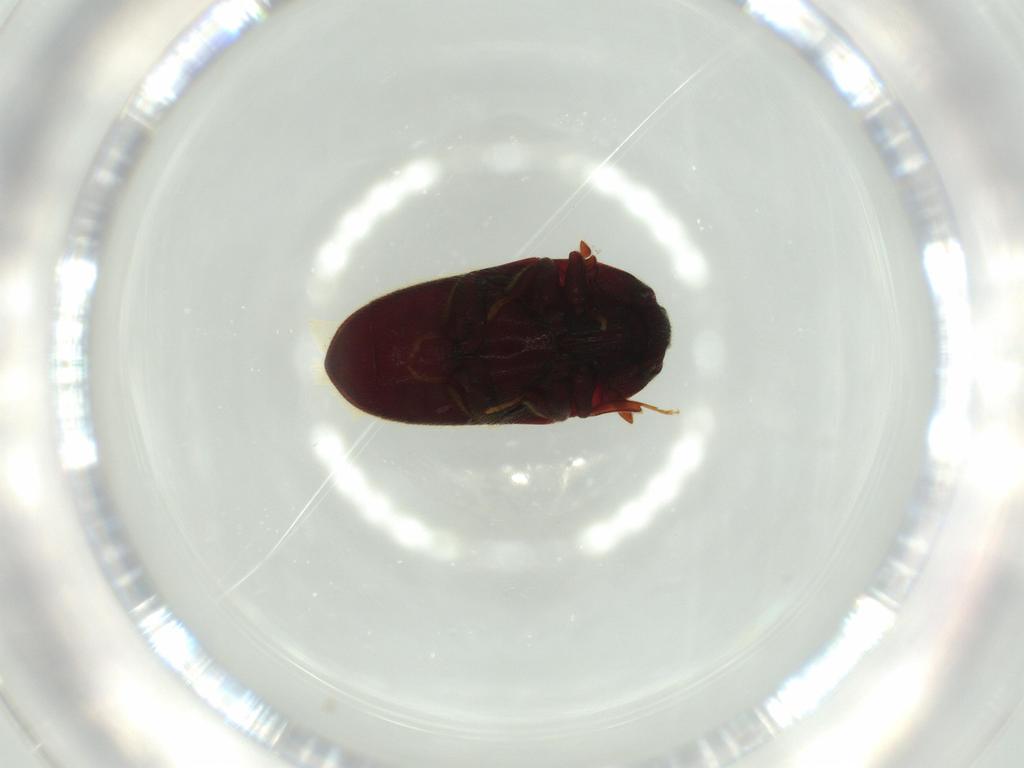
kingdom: Animalia
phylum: Arthropoda
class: Insecta
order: Coleoptera
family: Throscidae
